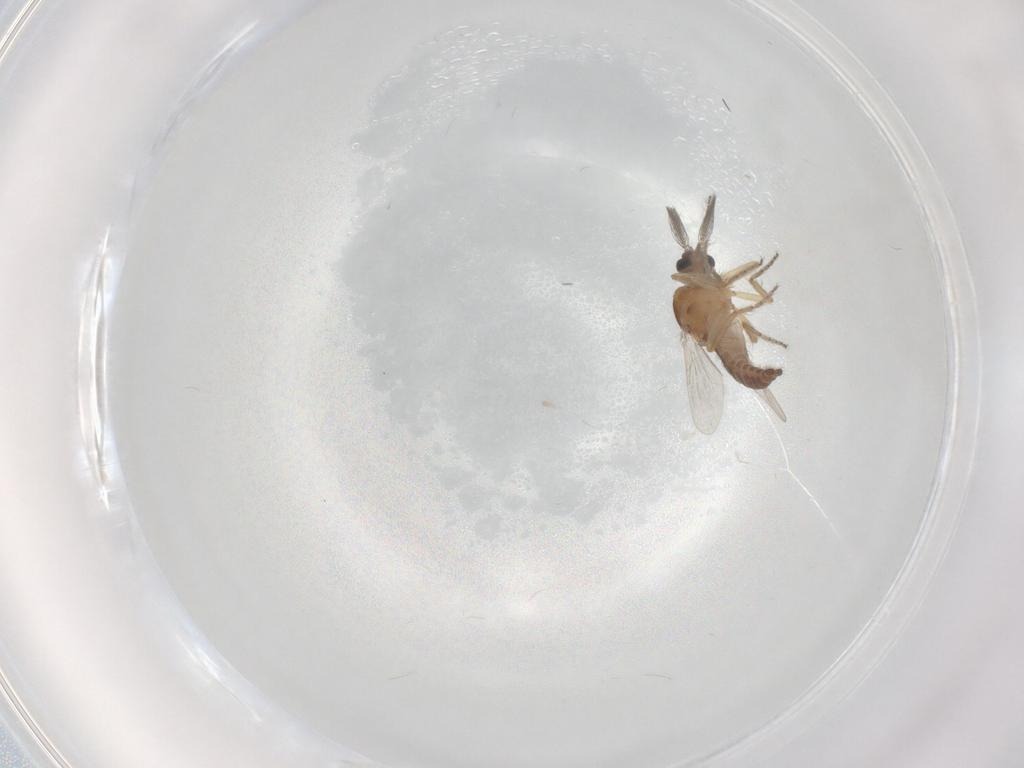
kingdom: Animalia
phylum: Arthropoda
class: Insecta
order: Diptera
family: Ceratopogonidae
